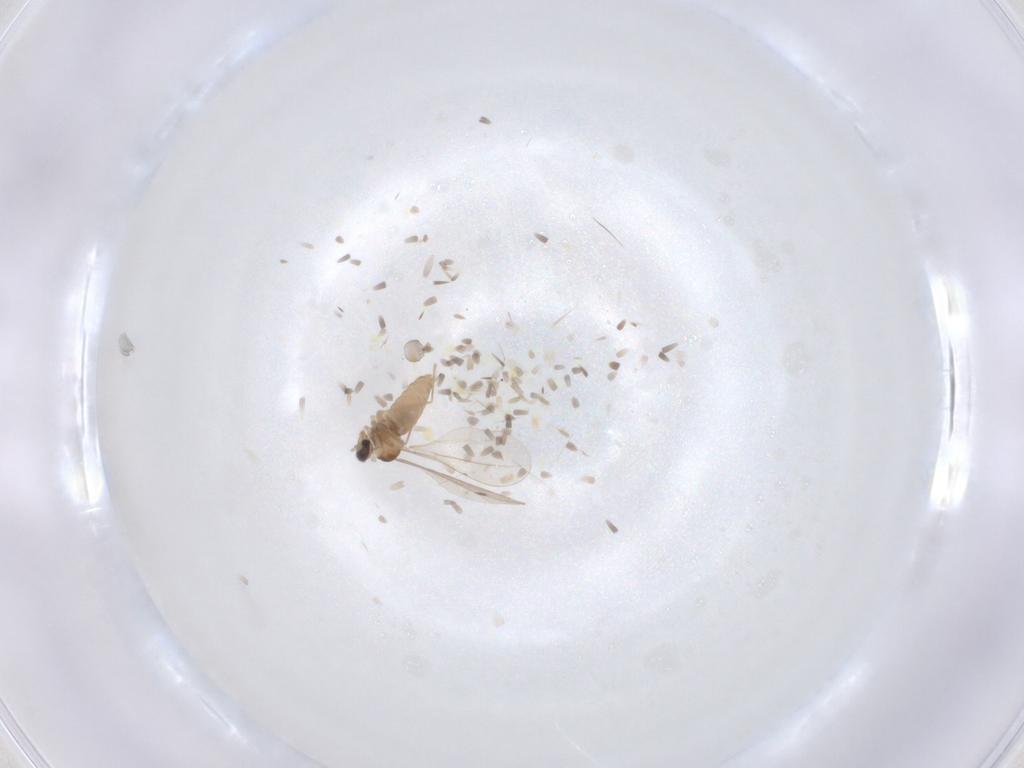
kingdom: Animalia
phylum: Arthropoda
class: Insecta
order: Diptera
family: Cecidomyiidae
